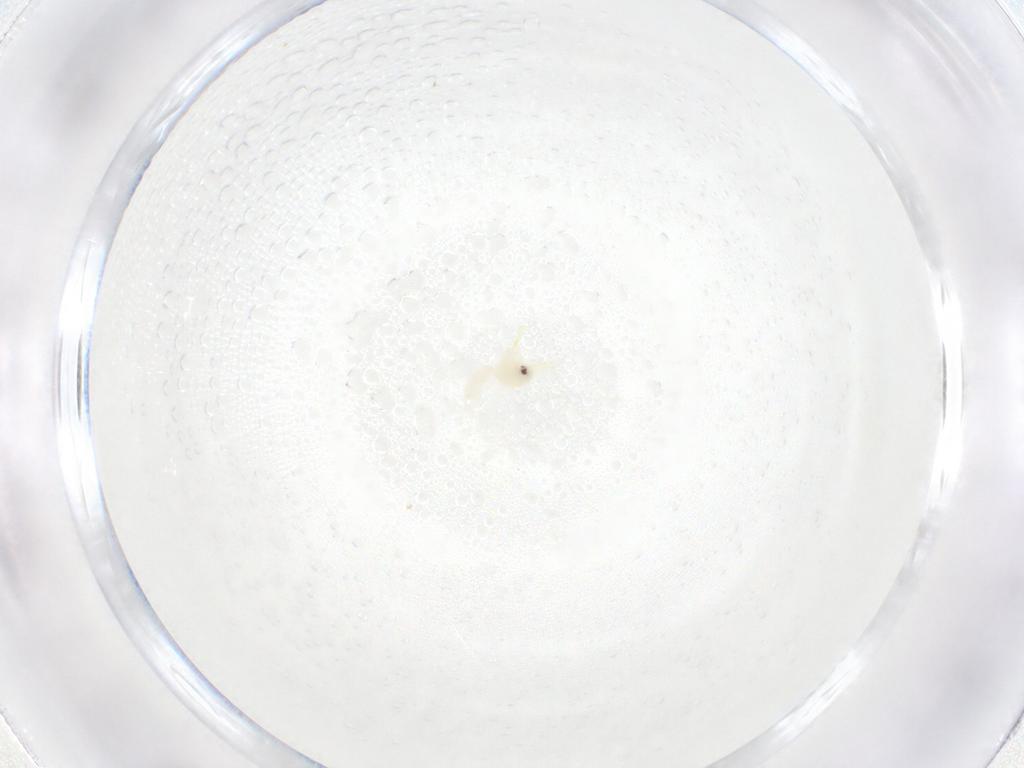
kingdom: Animalia
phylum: Arthropoda
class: Insecta
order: Hemiptera
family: Aleyrodidae
